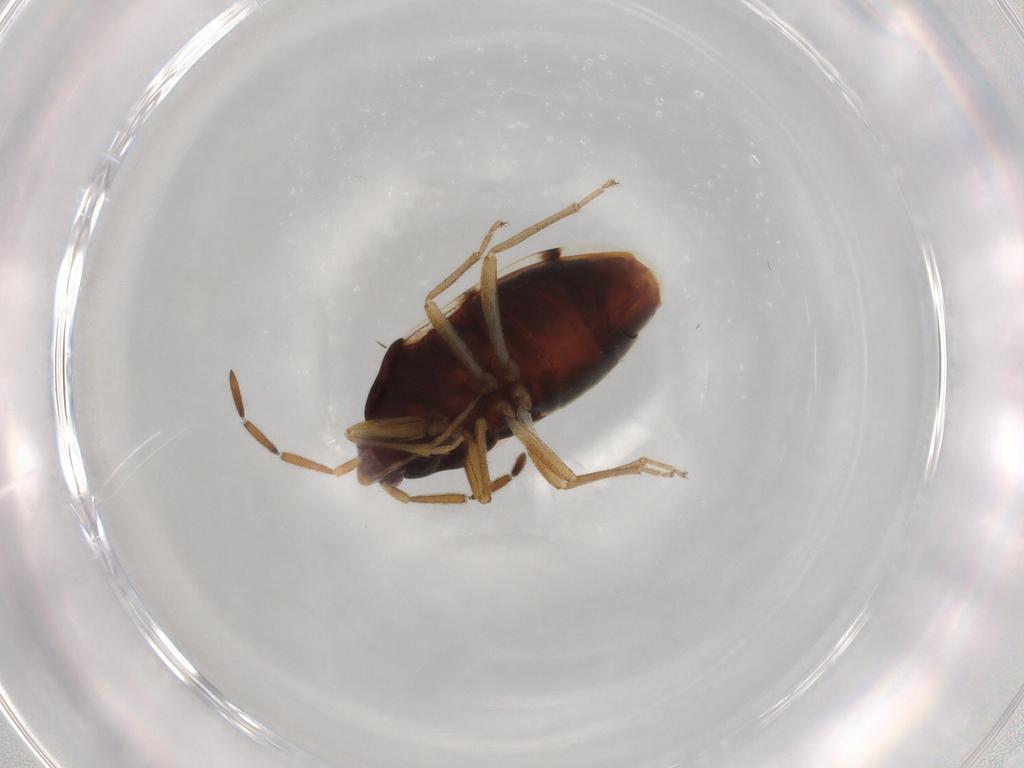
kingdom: Animalia
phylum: Arthropoda
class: Insecta
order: Hemiptera
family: Rhyparochromidae
